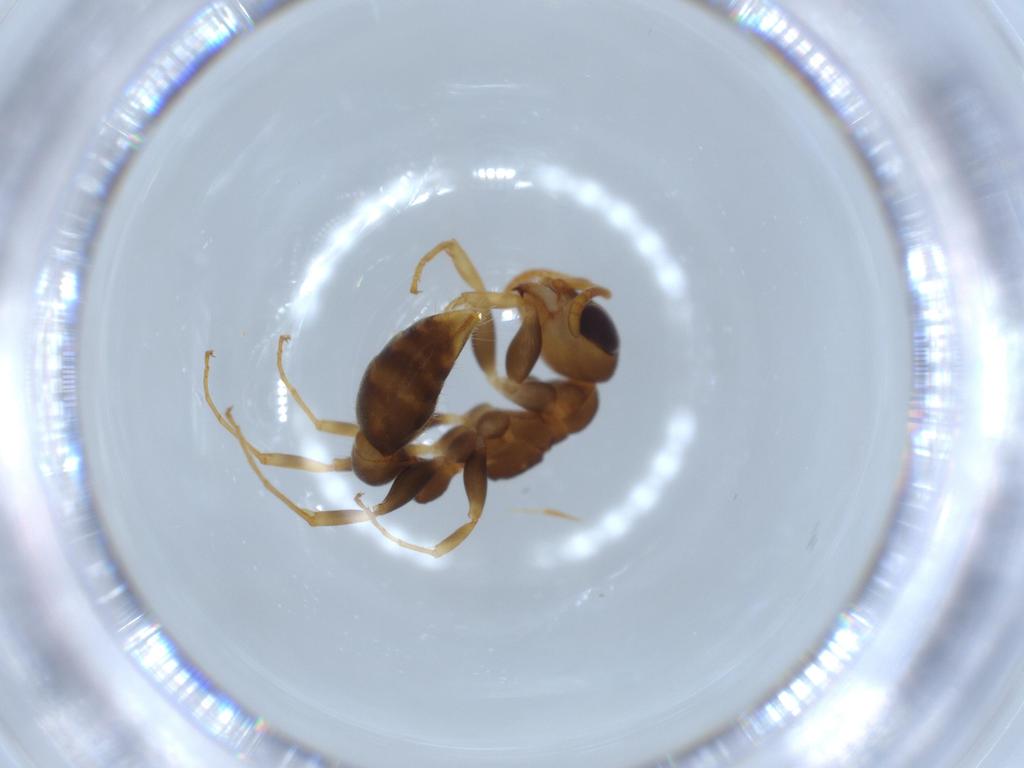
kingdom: Animalia
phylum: Arthropoda
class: Insecta
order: Hymenoptera
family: Formicidae
